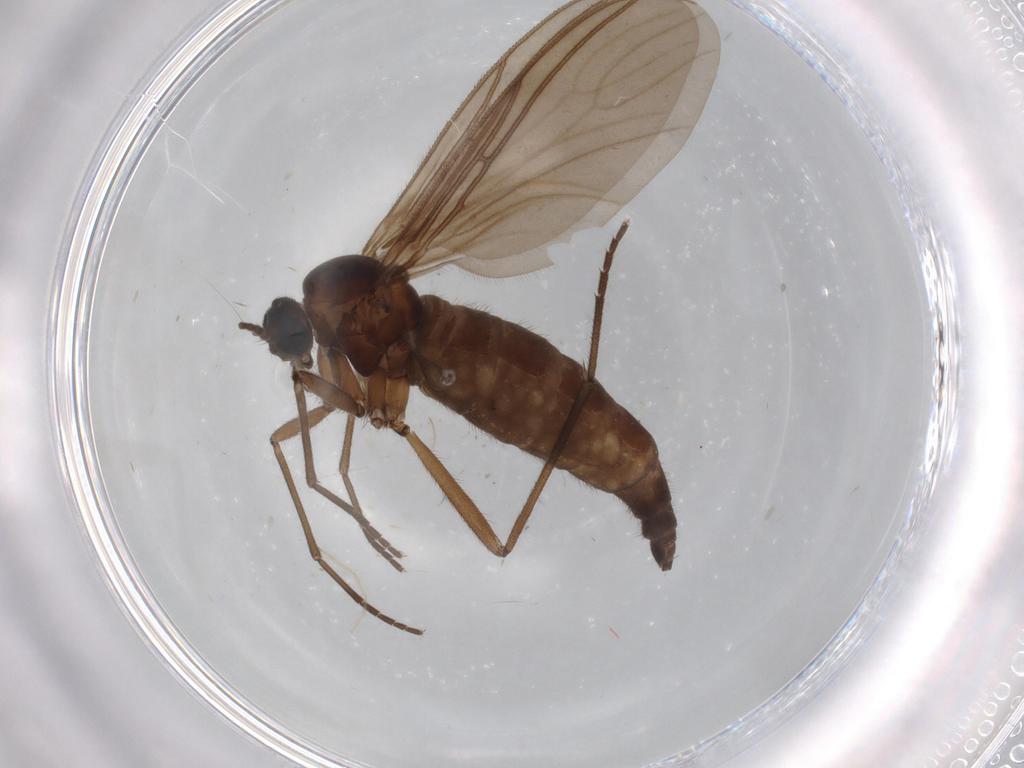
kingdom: Animalia
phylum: Arthropoda
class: Insecta
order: Diptera
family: Sciaridae
